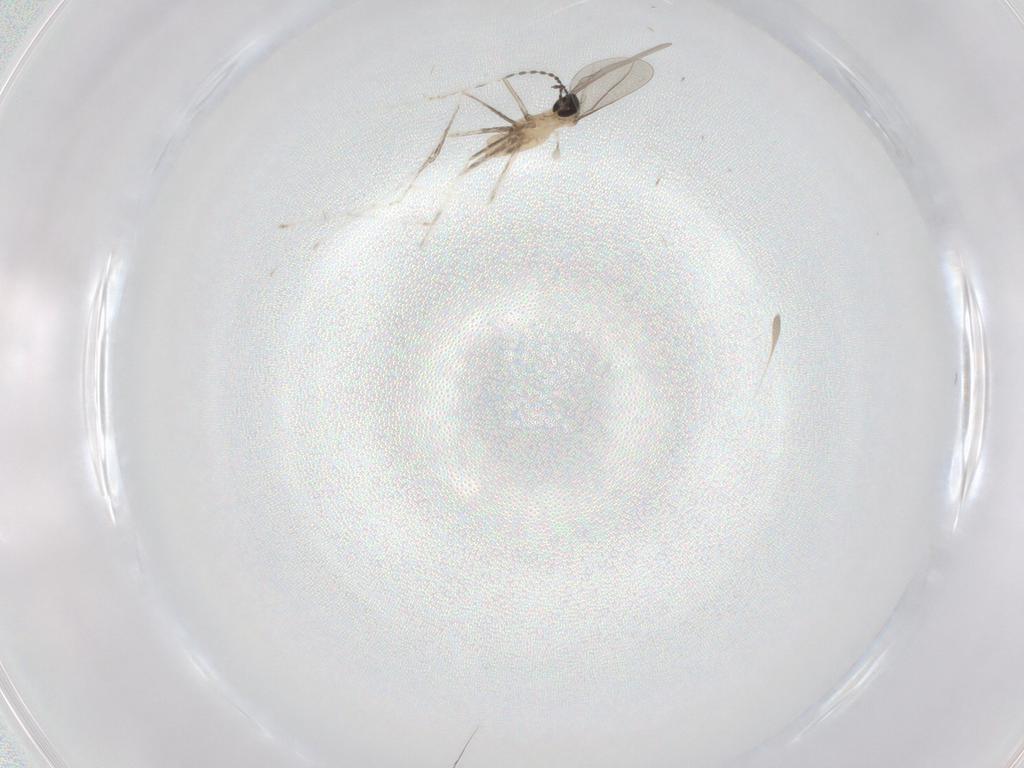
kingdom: Animalia
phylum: Arthropoda
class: Insecta
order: Diptera
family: Cecidomyiidae
